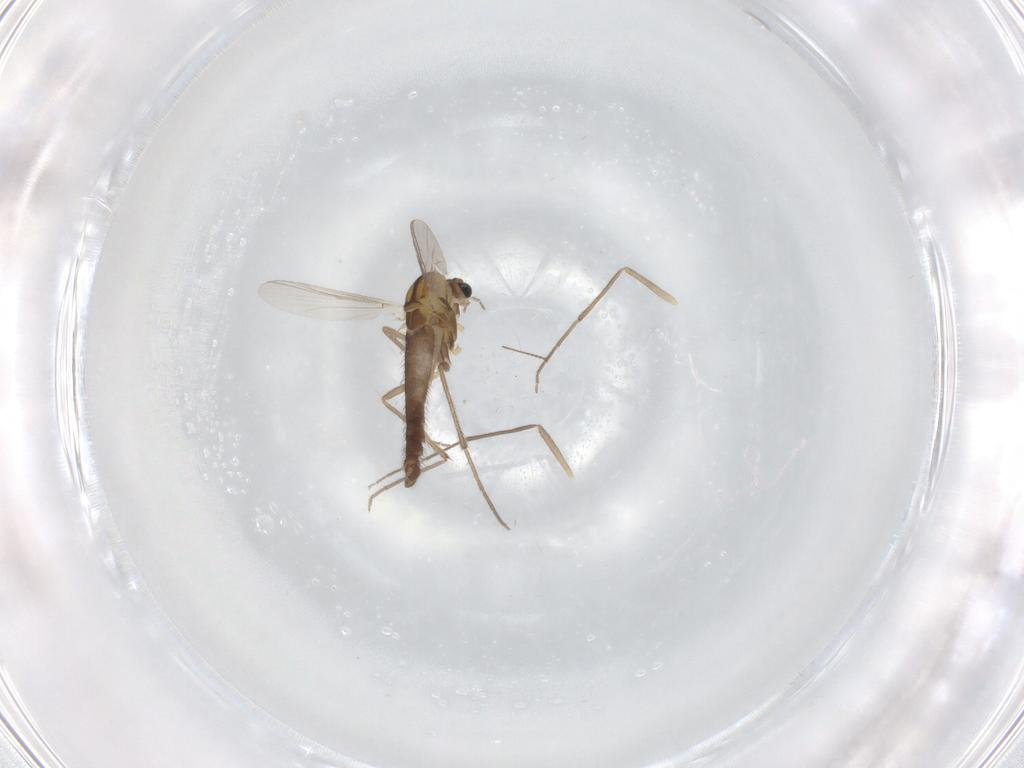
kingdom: Animalia
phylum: Arthropoda
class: Insecta
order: Diptera
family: Chironomidae
